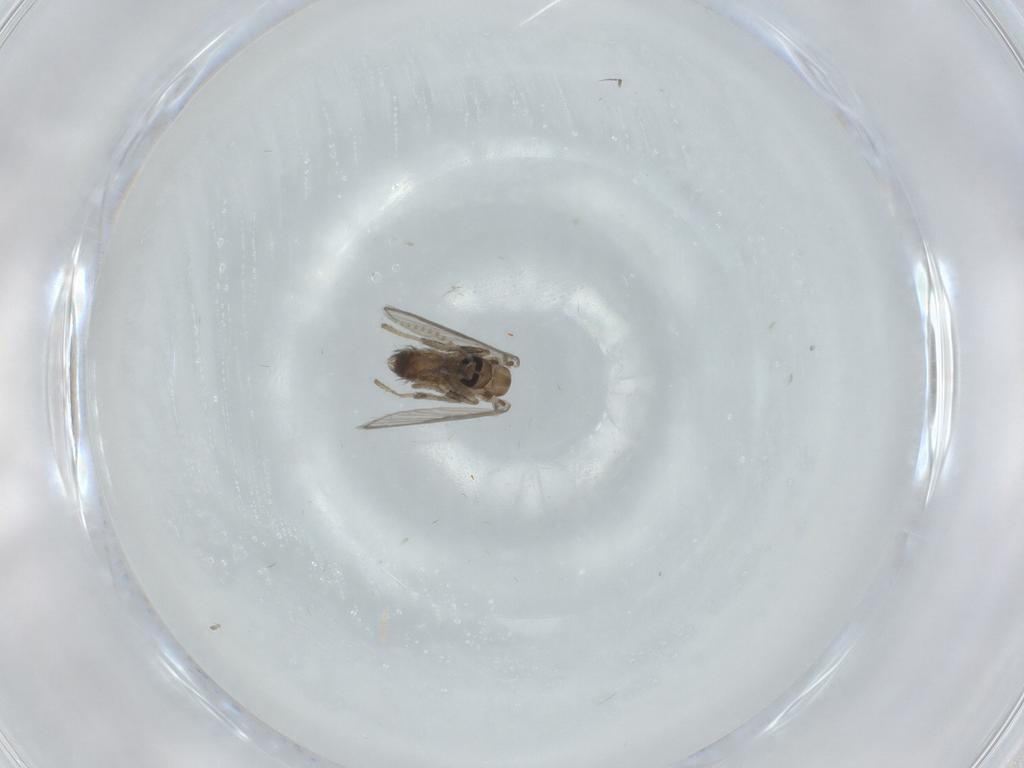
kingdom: Animalia
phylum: Arthropoda
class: Insecta
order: Diptera
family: Psychodidae
